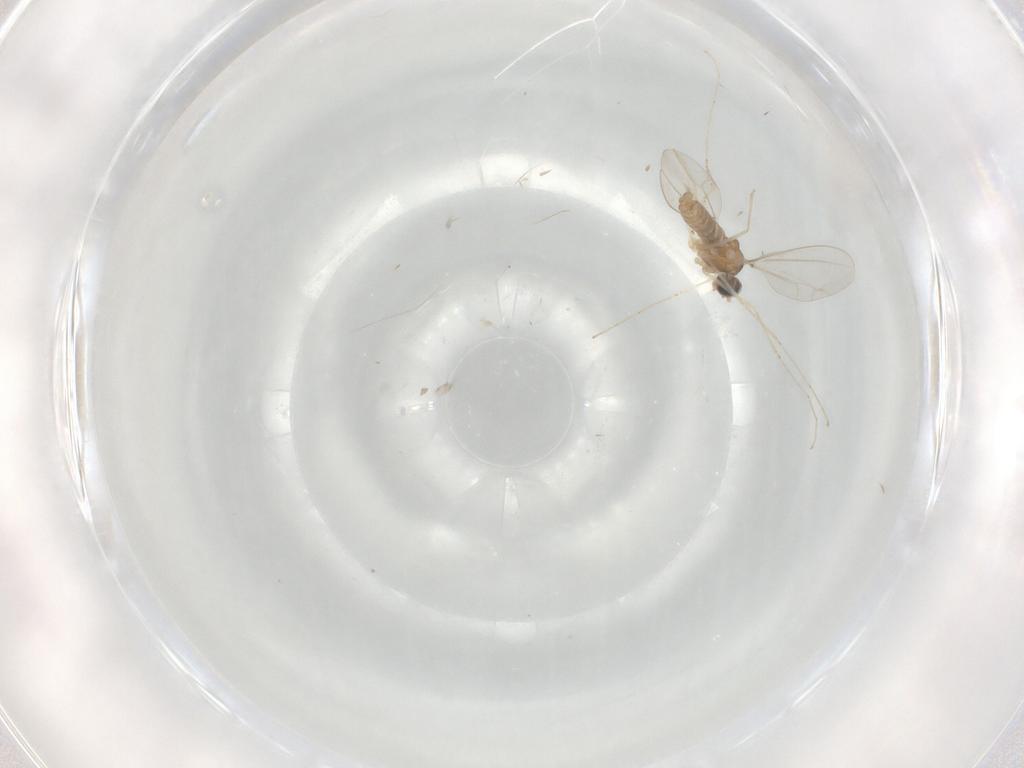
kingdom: Animalia
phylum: Arthropoda
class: Insecta
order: Diptera
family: Cecidomyiidae
